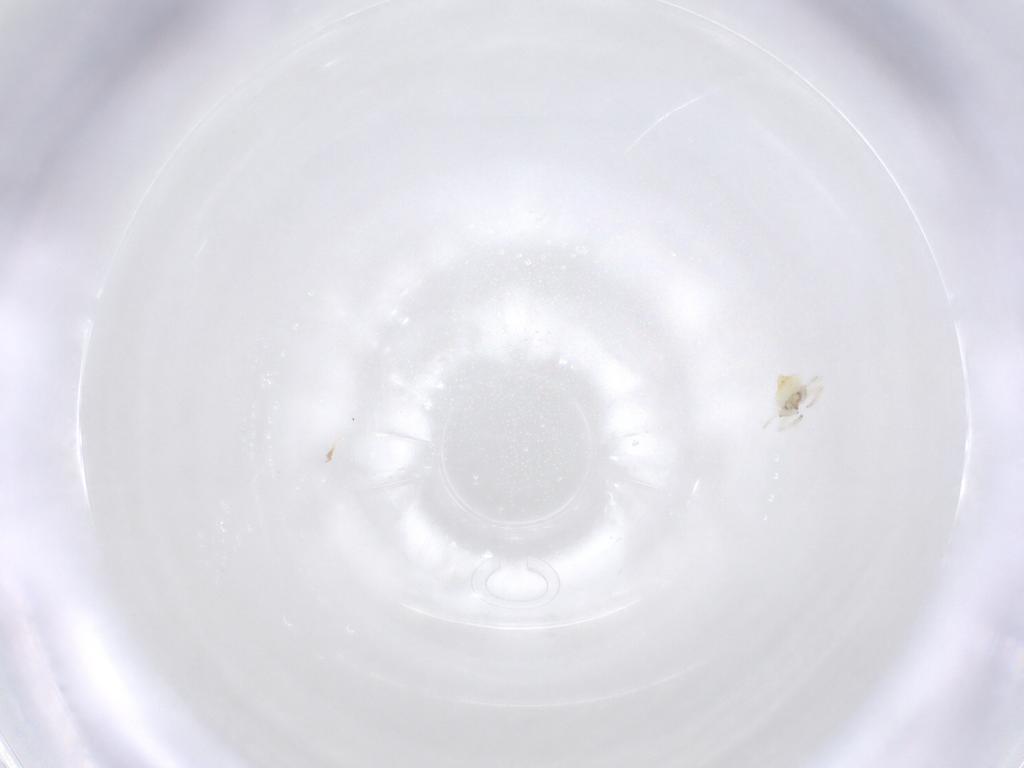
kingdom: Animalia
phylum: Arthropoda
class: Insecta
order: Neuroptera
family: Coniopterygidae
